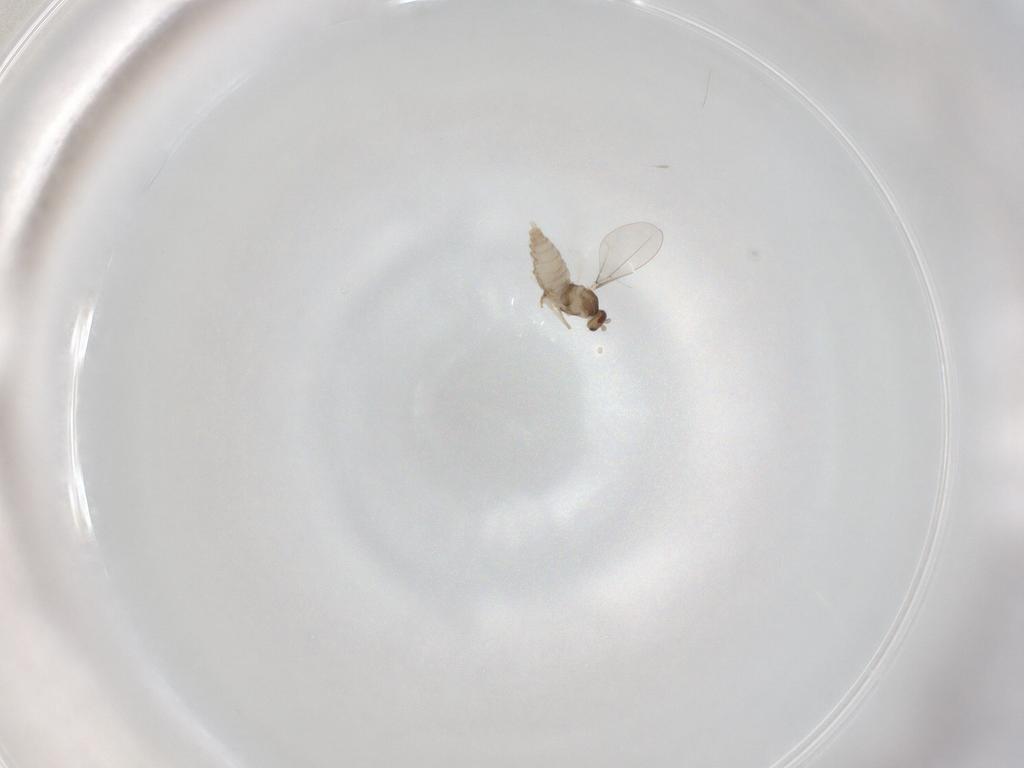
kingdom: Animalia
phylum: Arthropoda
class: Insecta
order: Diptera
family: Cecidomyiidae
